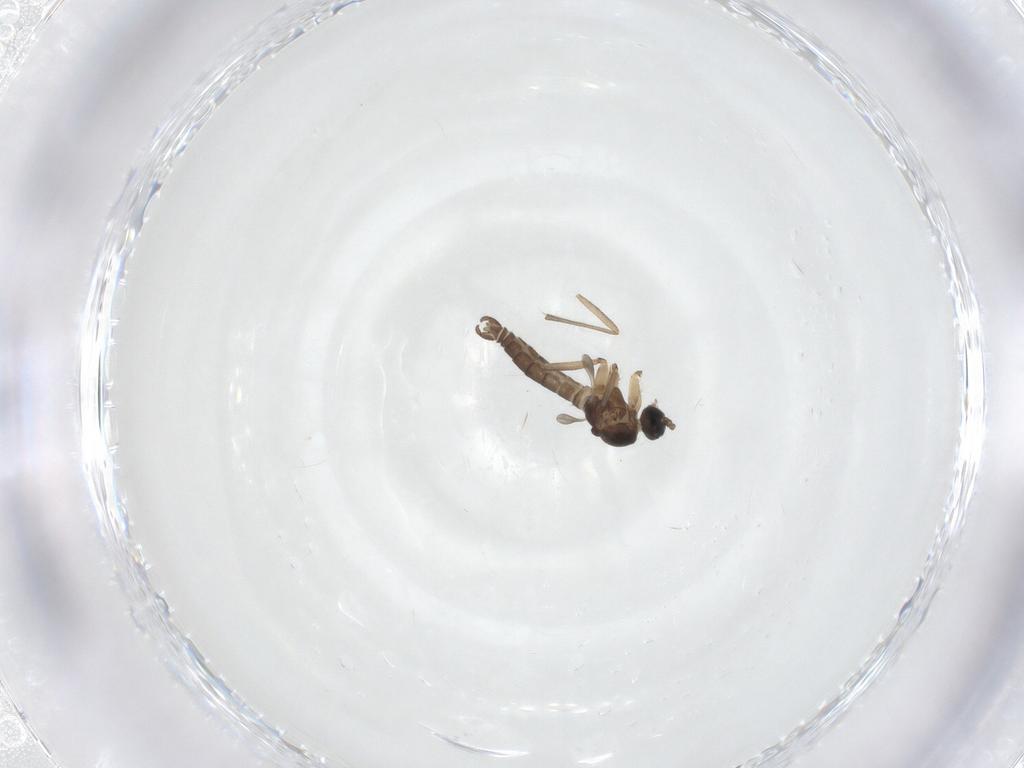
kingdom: Animalia
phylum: Arthropoda
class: Insecta
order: Diptera
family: Sciaridae
